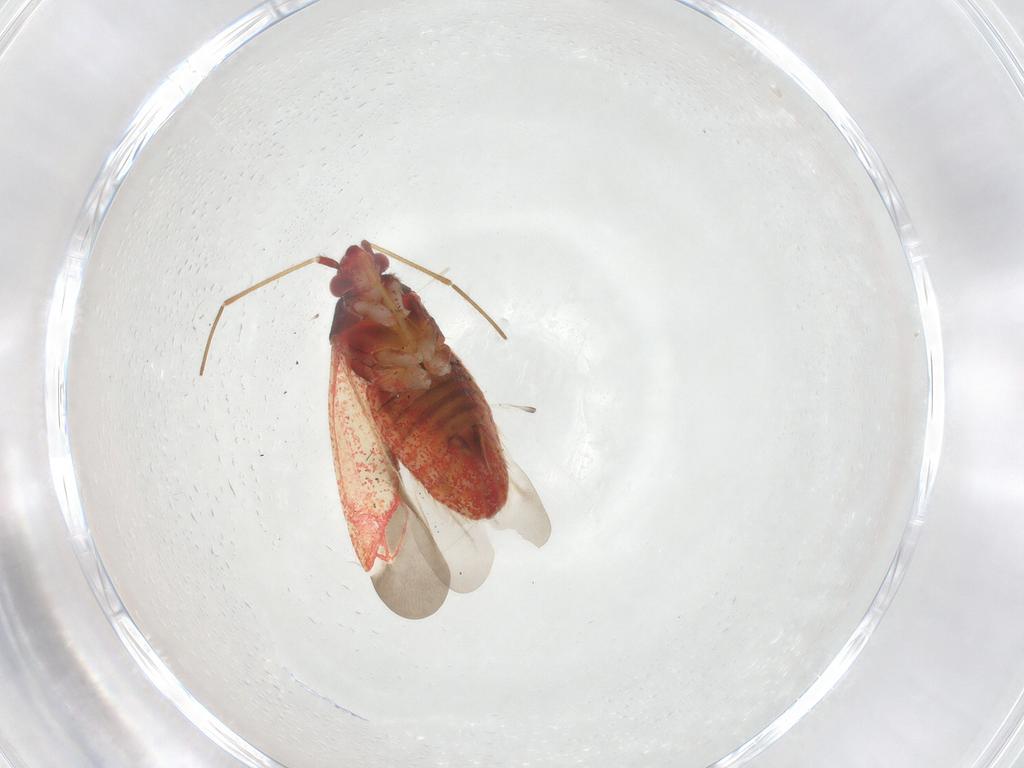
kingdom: Animalia
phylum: Arthropoda
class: Insecta
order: Hemiptera
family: Miridae
